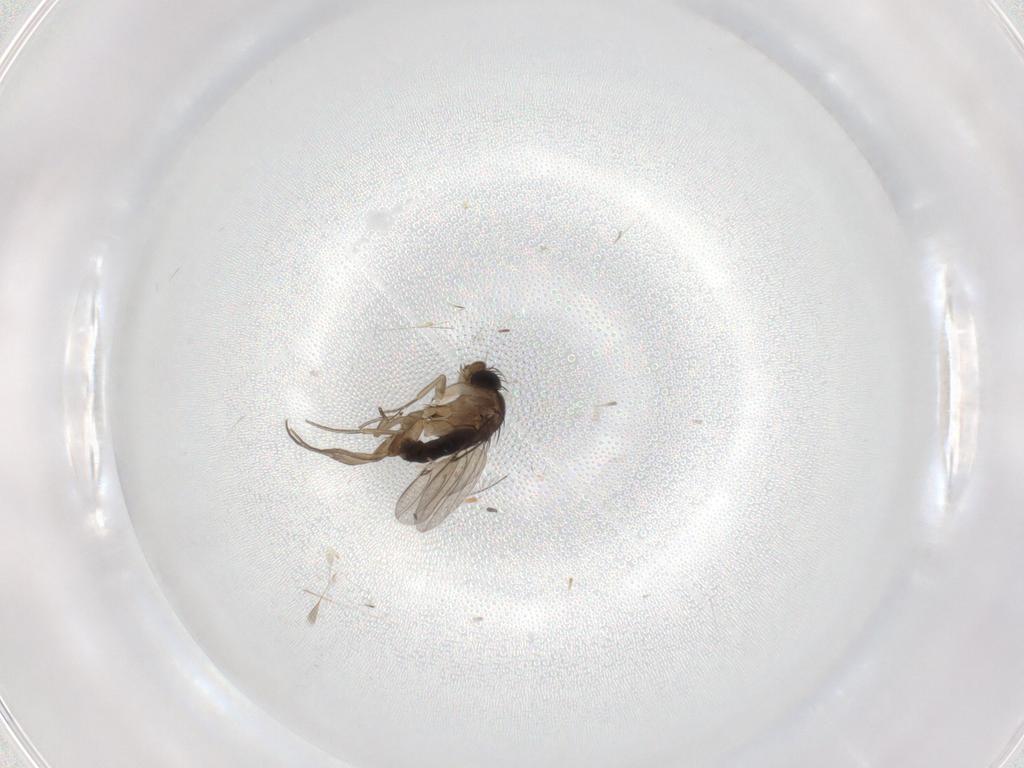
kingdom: Animalia
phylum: Arthropoda
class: Insecta
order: Diptera
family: Phoridae
